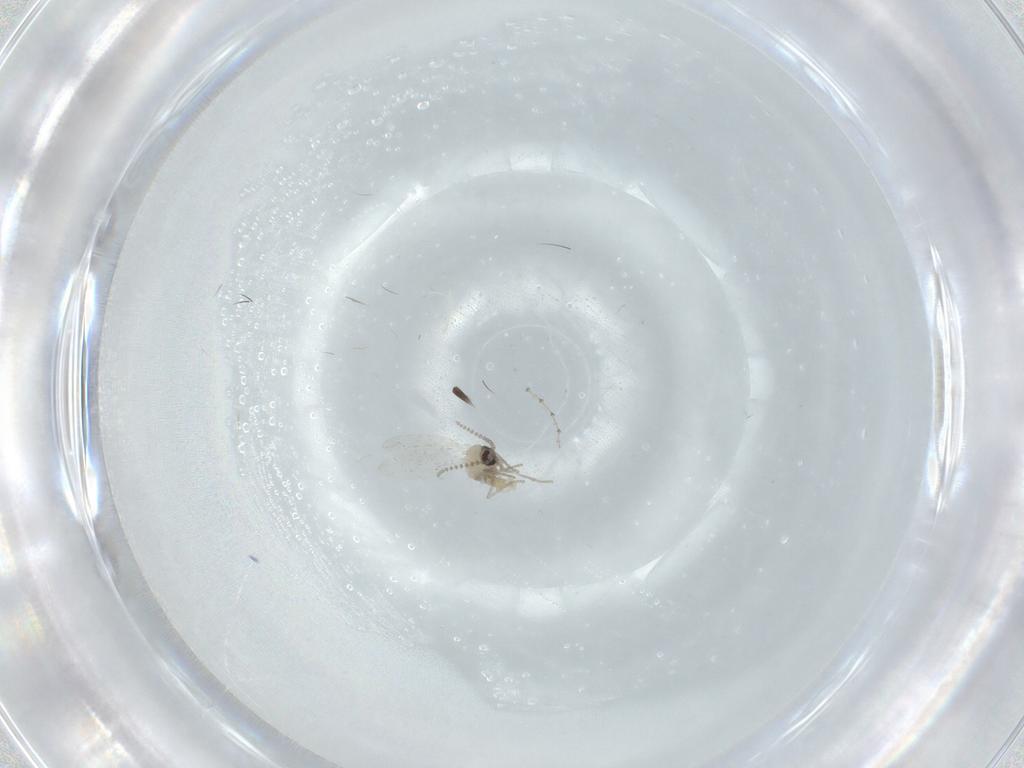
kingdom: Animalia
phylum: Arthropoda
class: Insecta
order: Diptera
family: Psychodidae
